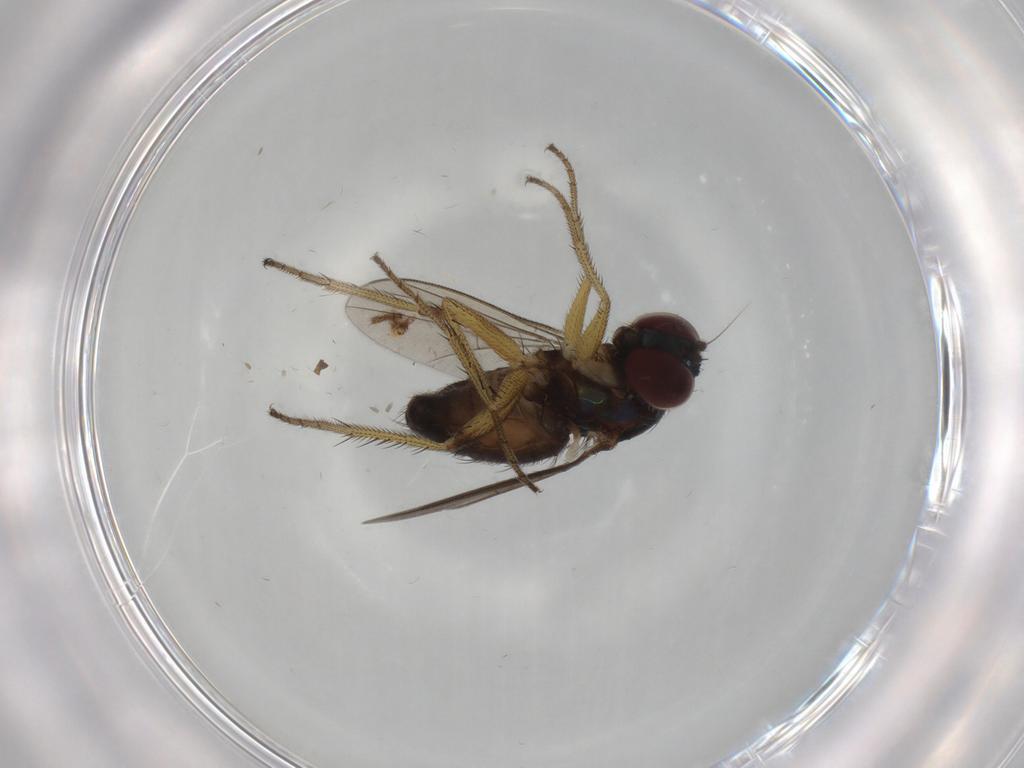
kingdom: Animalia
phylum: Arthropoda
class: Insecta
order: Diptera
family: Dolichopodidae
